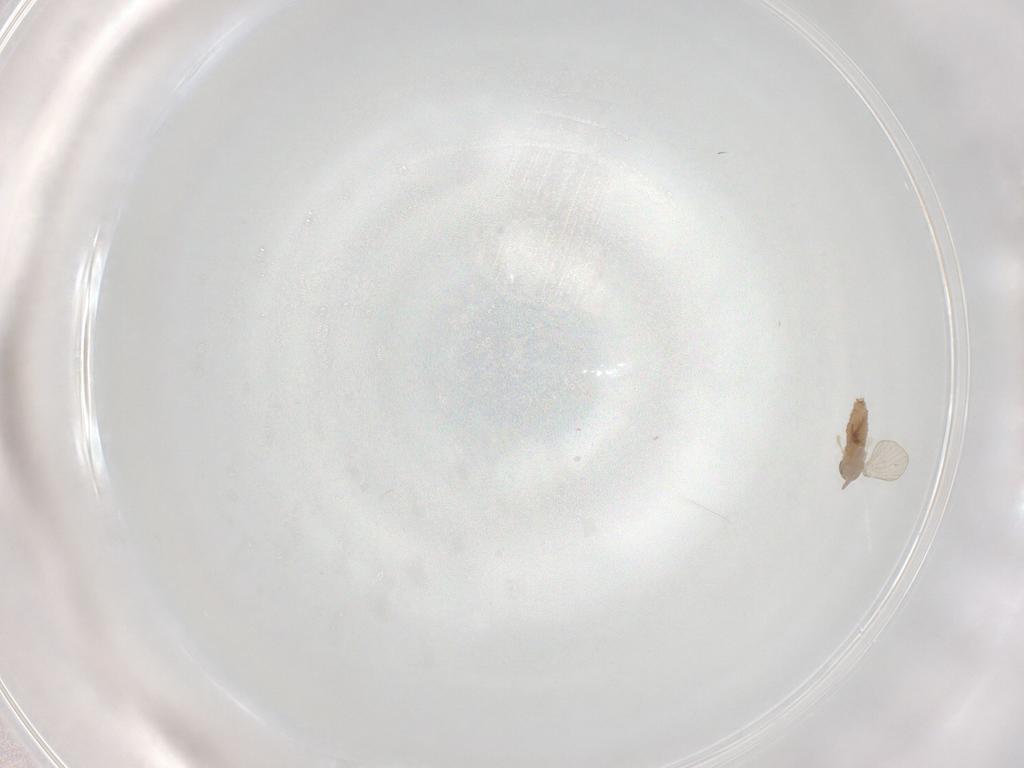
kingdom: Animalia
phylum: Arthropoda
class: Insecta
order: Diptera
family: Psychodidae
